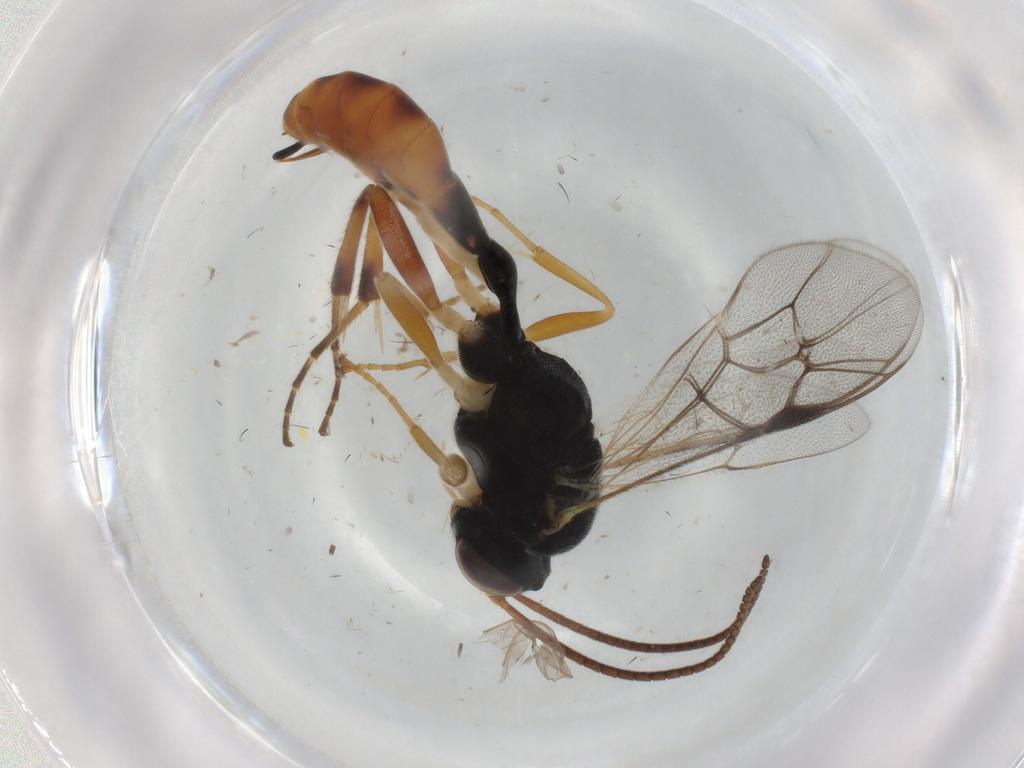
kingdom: Animalia
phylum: Arthropoda
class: Insecta
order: Hymenoptera
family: Ichneumonidae
